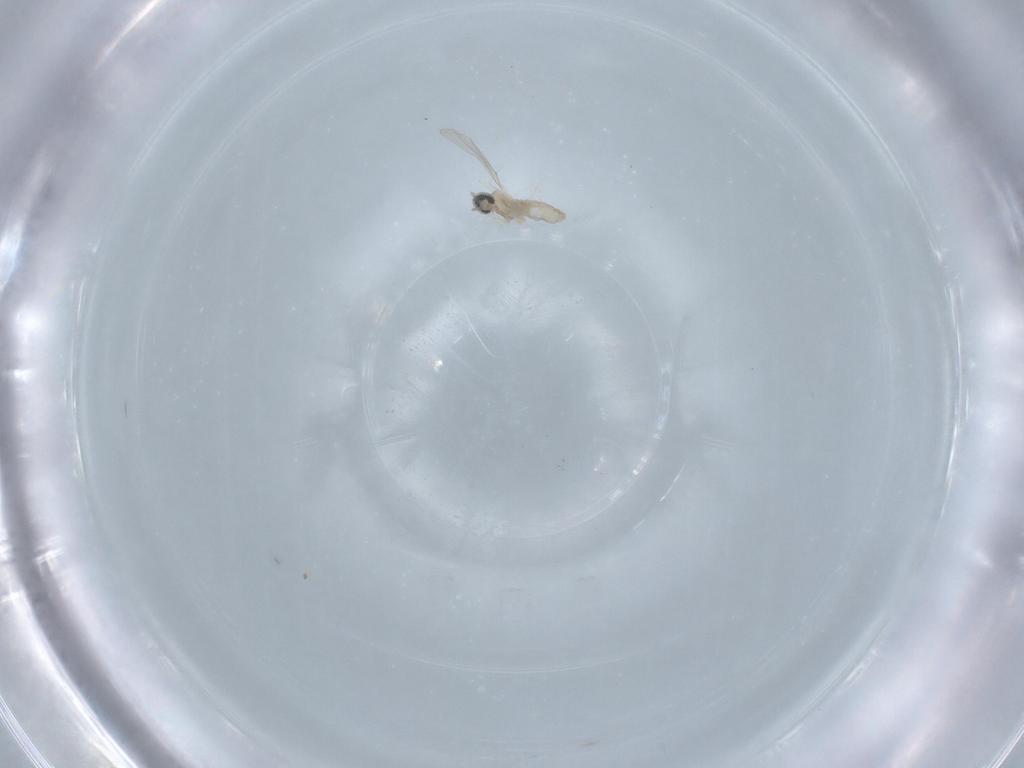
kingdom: Animalia
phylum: Arthropoda
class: Insecta
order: Diptera
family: Cecidomyiidae
